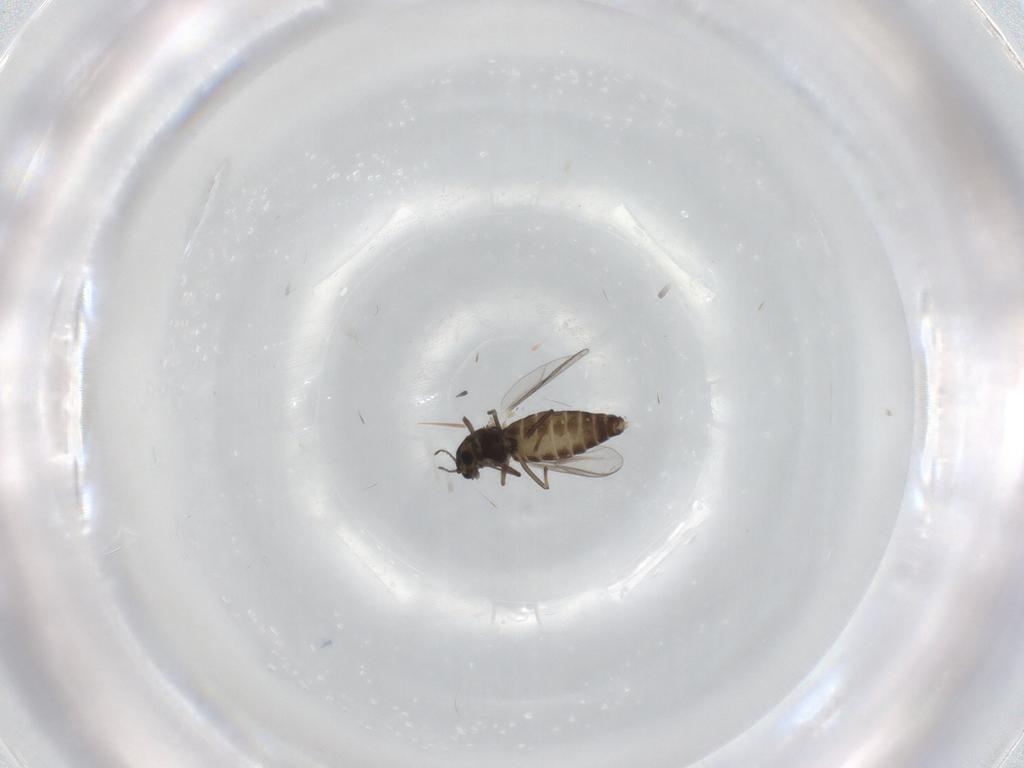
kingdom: Animalia
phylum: Arthropoda
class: Insecta
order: Diptera
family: Chironomidae
